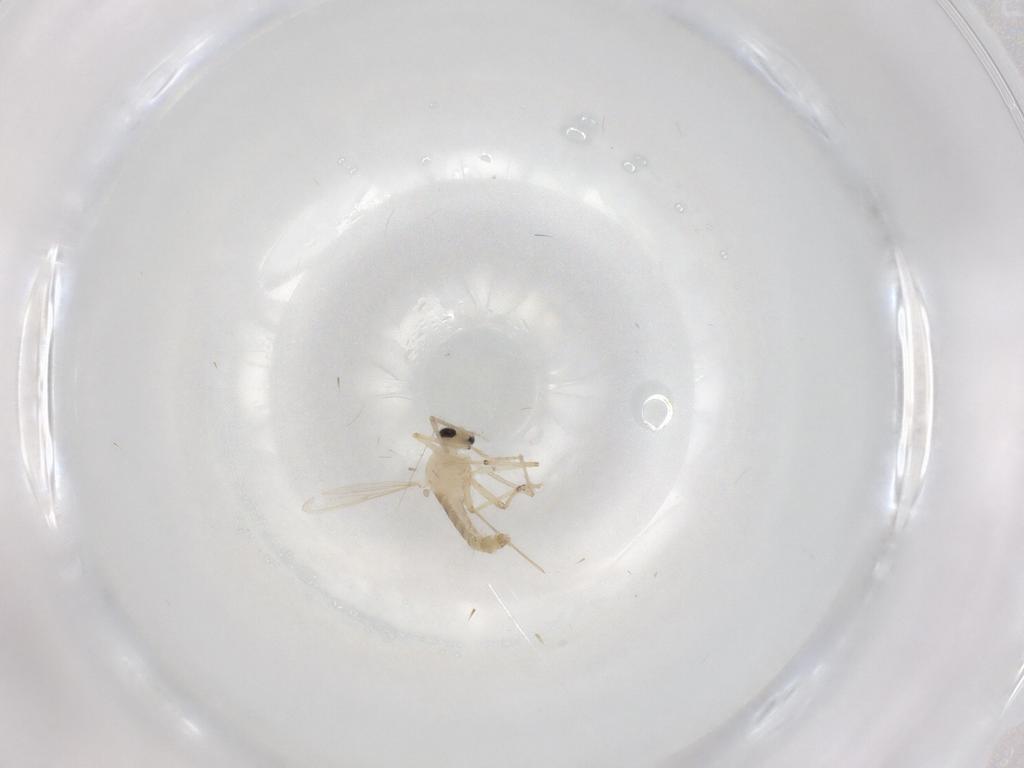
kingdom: Animalia
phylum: Arthropoda
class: Insecta
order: Diptera
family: Chironomidae
